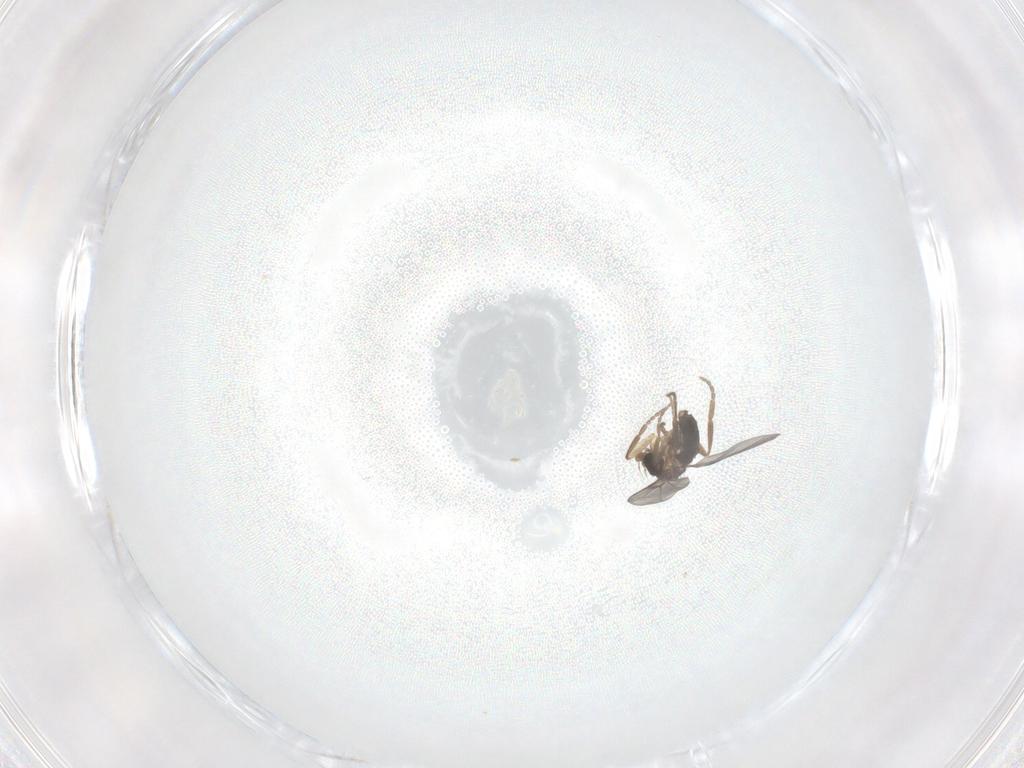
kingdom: Animalia
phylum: Arthropoda
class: Insecta
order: Diptera
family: Phoridae
